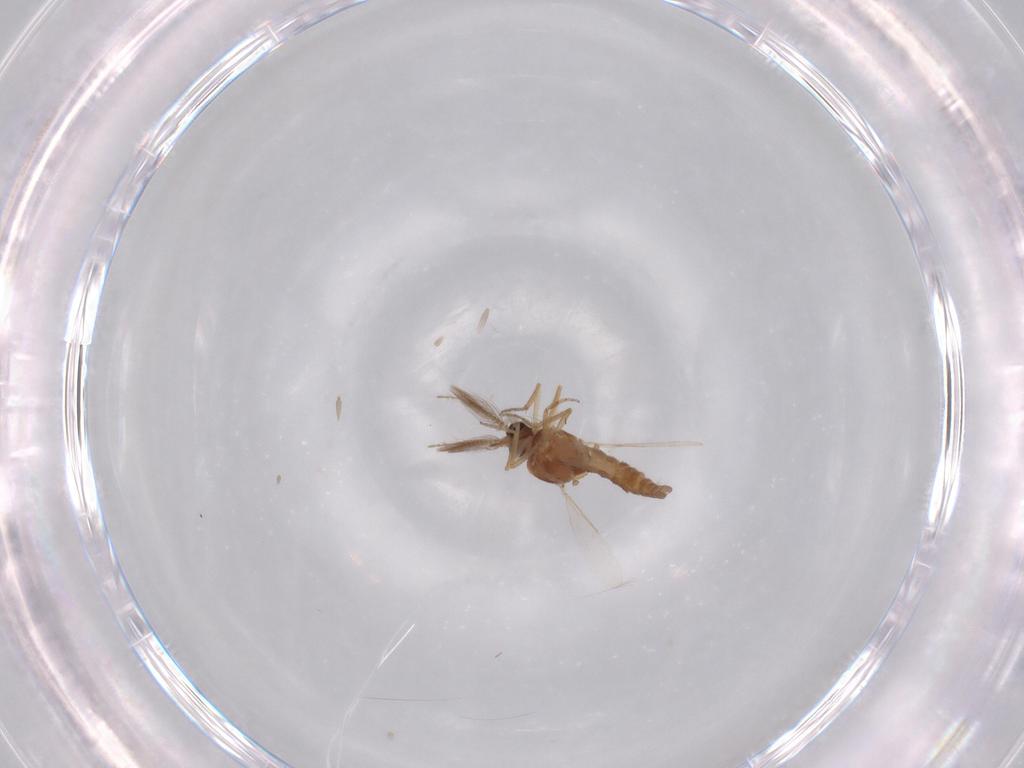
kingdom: Animalia
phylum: Arthropoda
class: Insecta
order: Diptera
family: Ceratopogonidae
